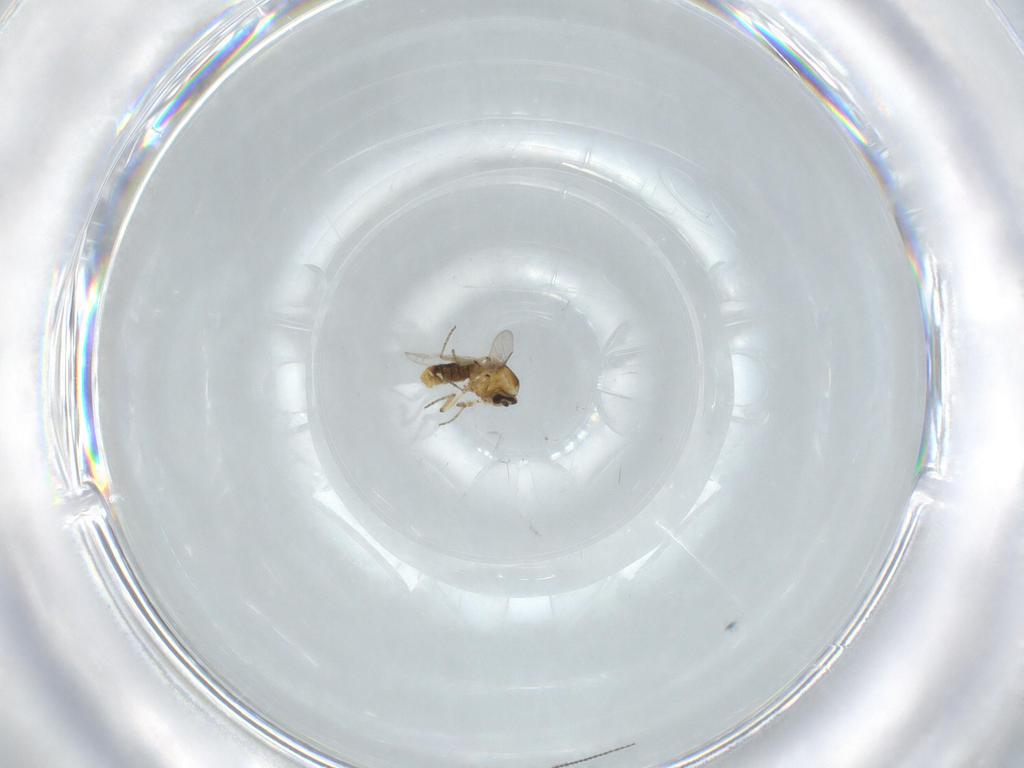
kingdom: Animalia
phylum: Arthropoda
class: Insecta
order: Diptera
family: Ceratopogonidae
